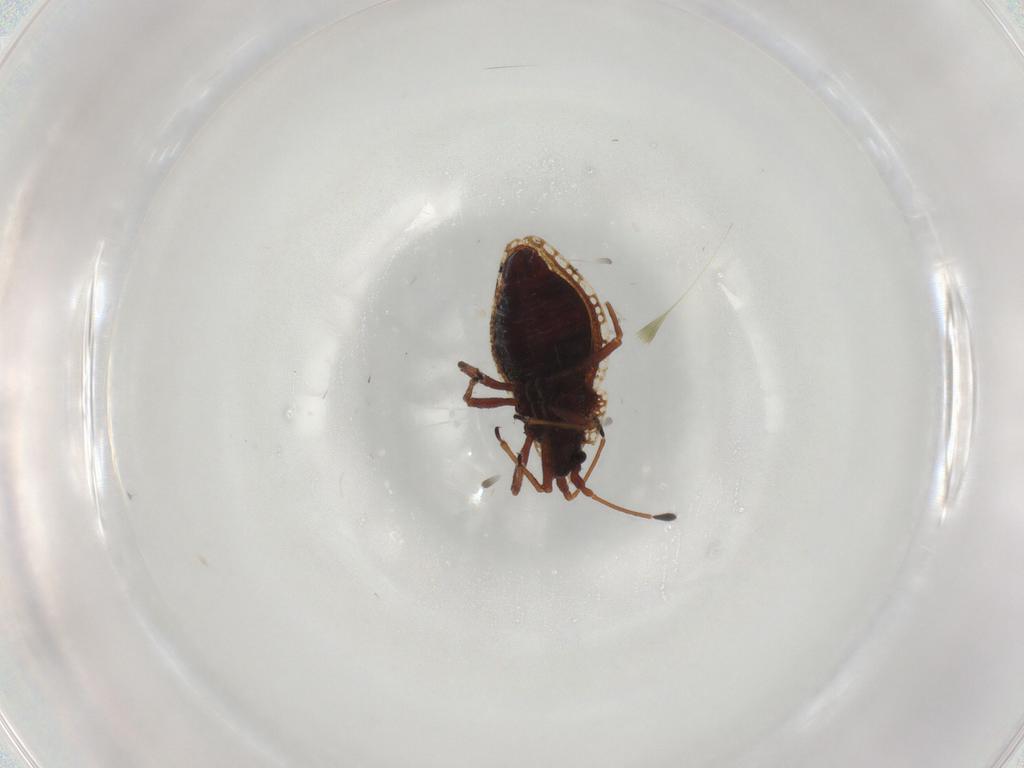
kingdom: Animalia
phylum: Arthropoda
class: Insecta
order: Hemiptera
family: Tingidae
